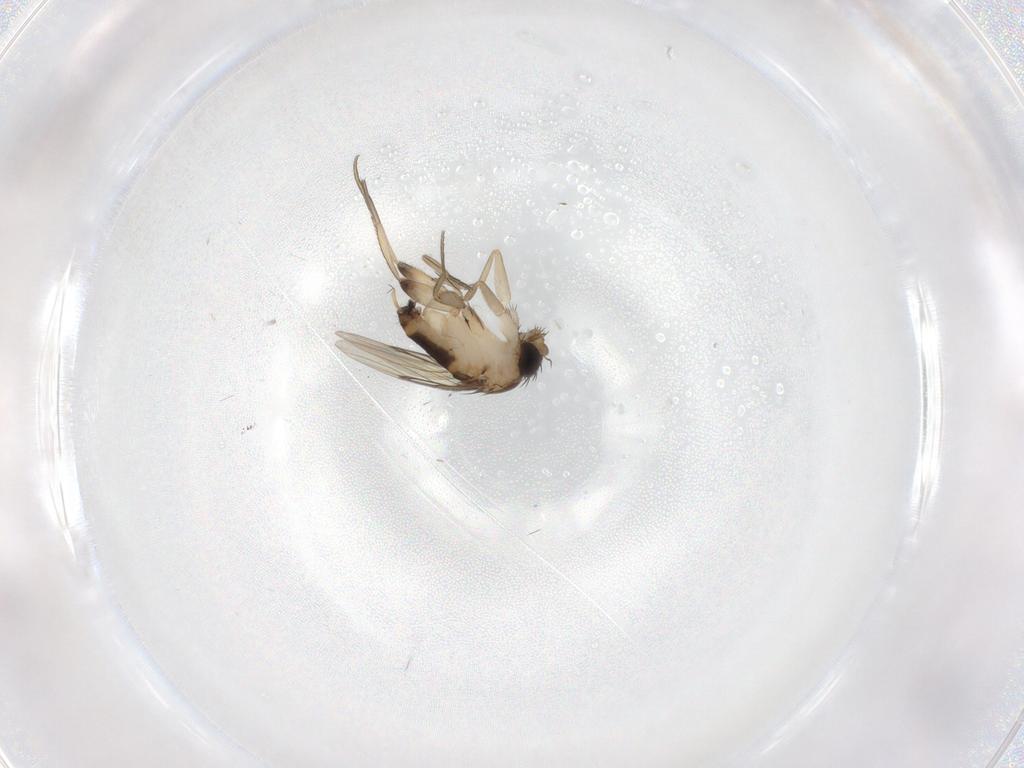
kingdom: Animalia
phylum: Arthropoda
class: Insecta
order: Diptera
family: Phoridae
